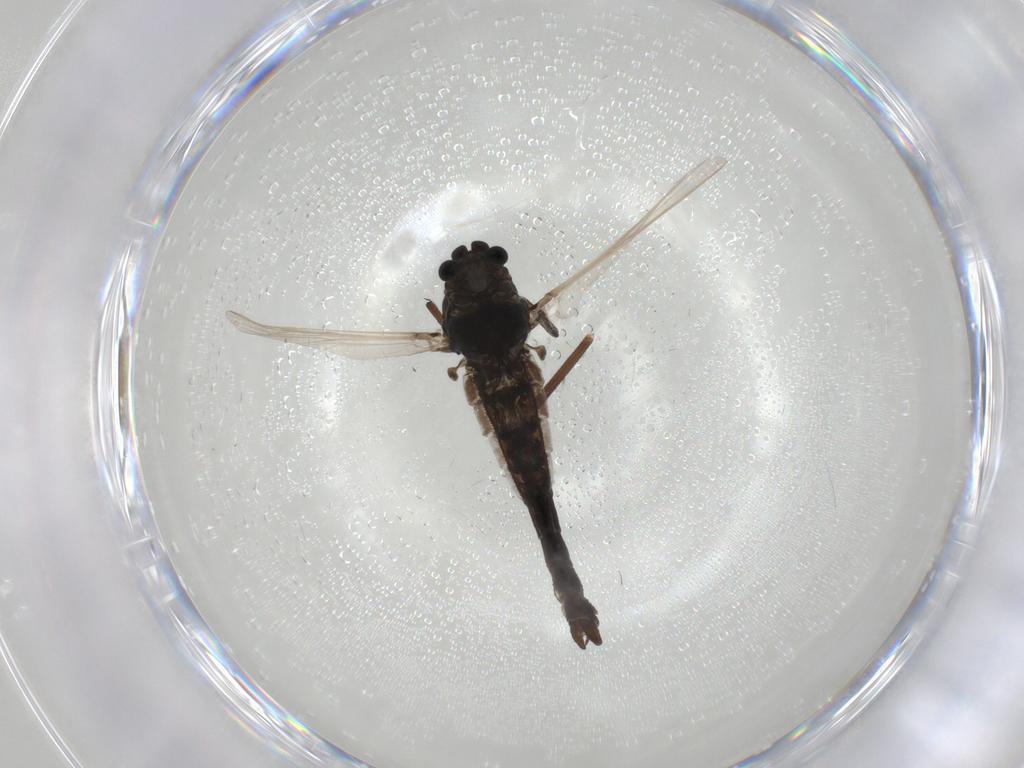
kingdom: Animalia
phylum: Arthropoda
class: Insecta
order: Diptera
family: Chironomidae
